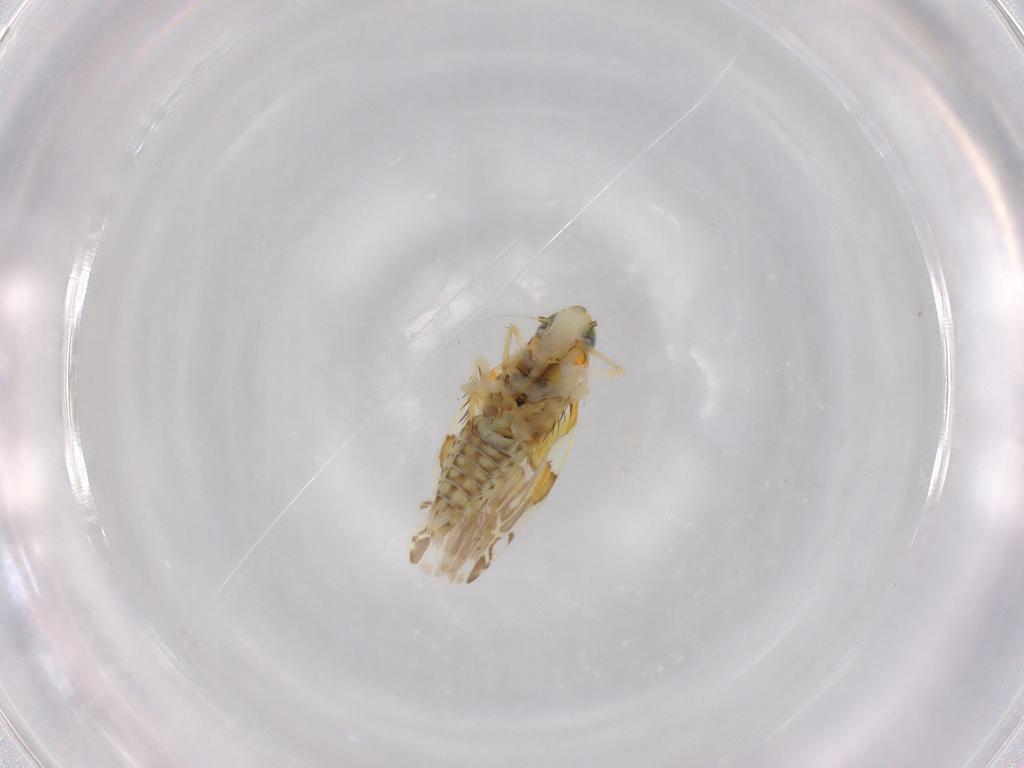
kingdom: Animalia
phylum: Arthropoda
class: Insecta
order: Hemiptera
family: Cicadellidae
